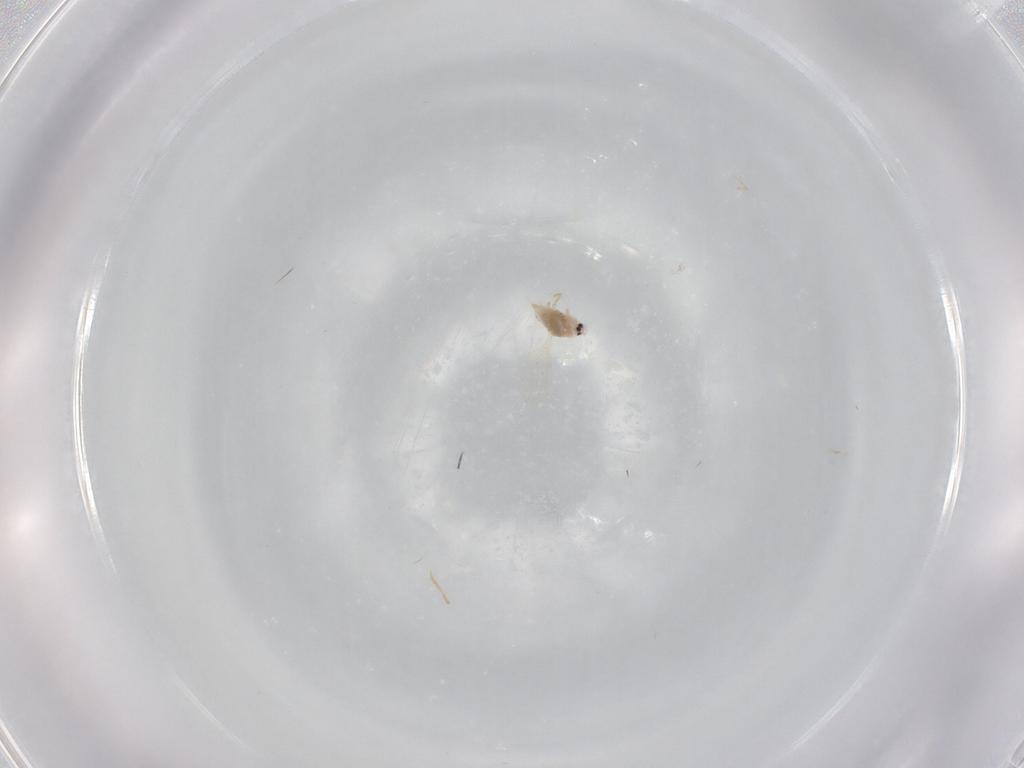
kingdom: Animalia
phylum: Arthropoda
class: Insecta
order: Hemiptera
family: Coccoidea_incertae_sedis
